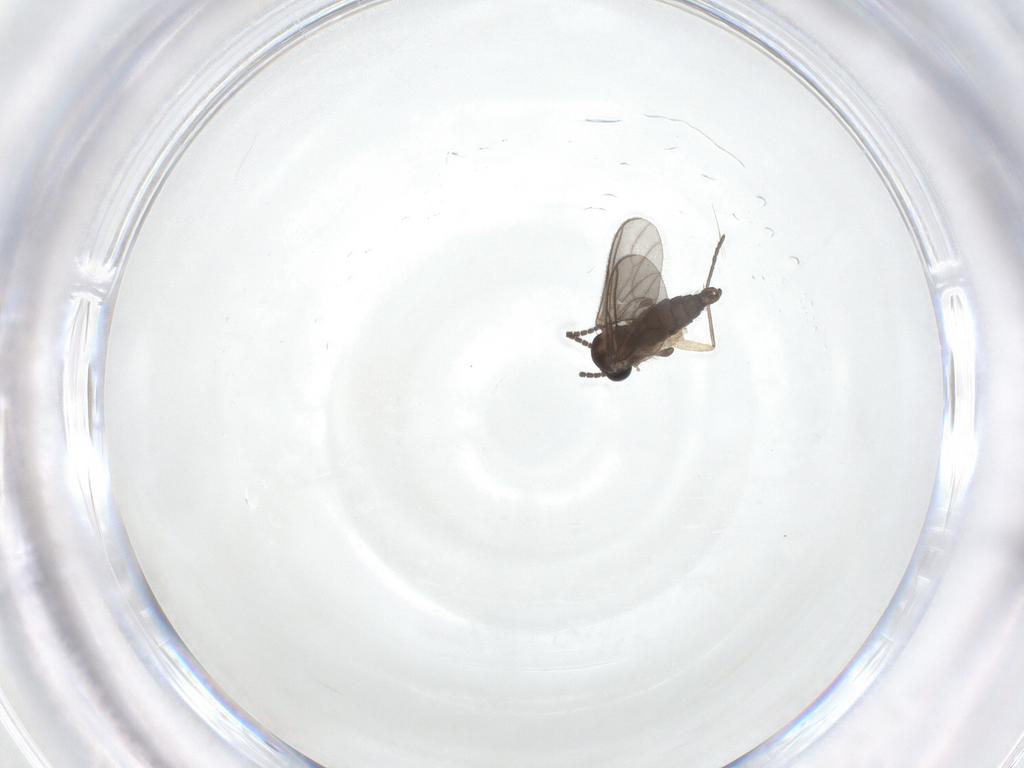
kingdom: Animalia
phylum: Arthropoda
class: Insecta
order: Diptera
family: Sciaridae
